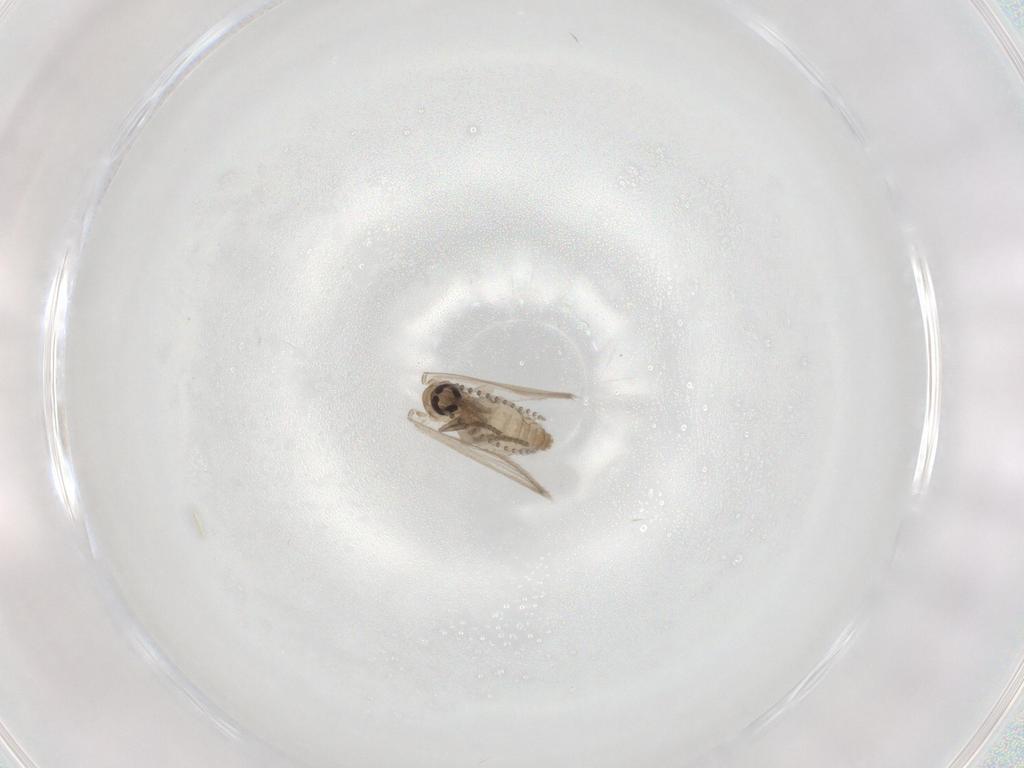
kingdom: Animalia
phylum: Arthropoda
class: Insecta
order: Diptera
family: Psychodidae
